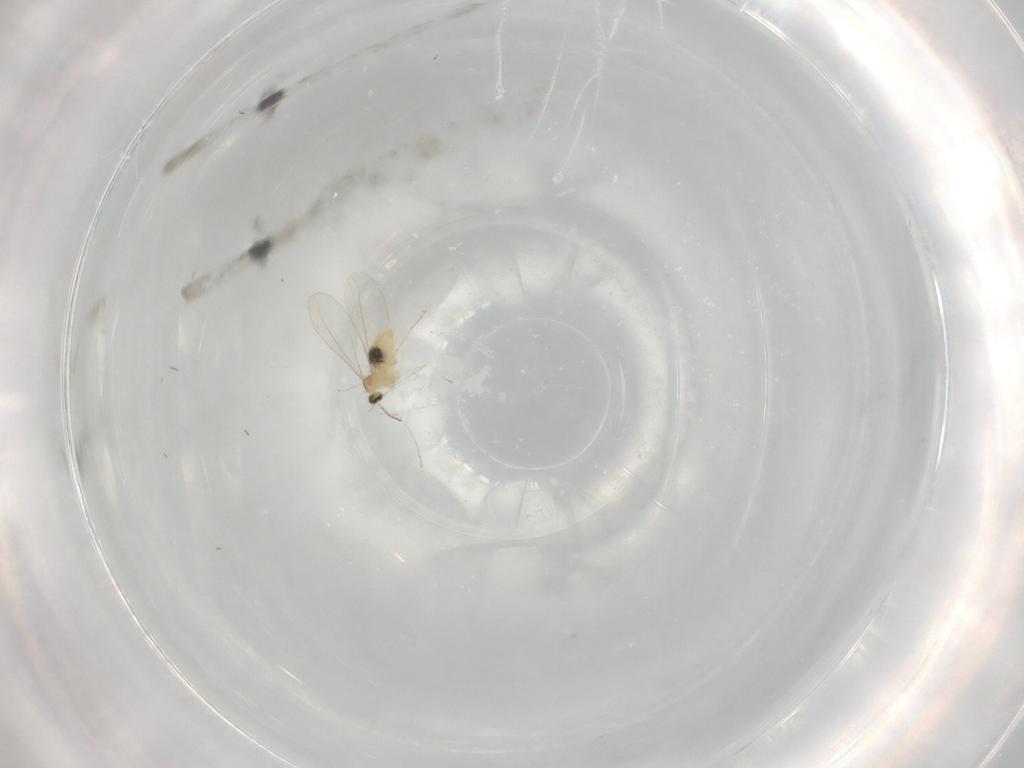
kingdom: Animalia
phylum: Arthropoda
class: Insecta
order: Diptera
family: Cecidomyiidae
